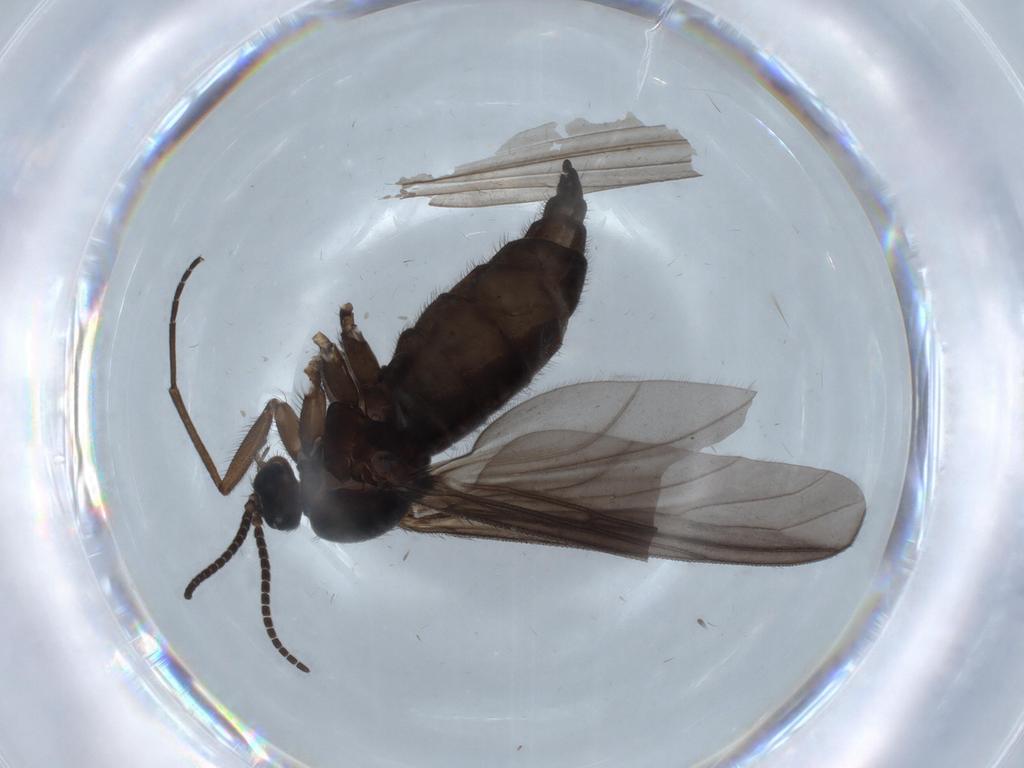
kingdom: Animalia
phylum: Arthropoda
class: Insecta
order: Diptera
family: Sciaridae
